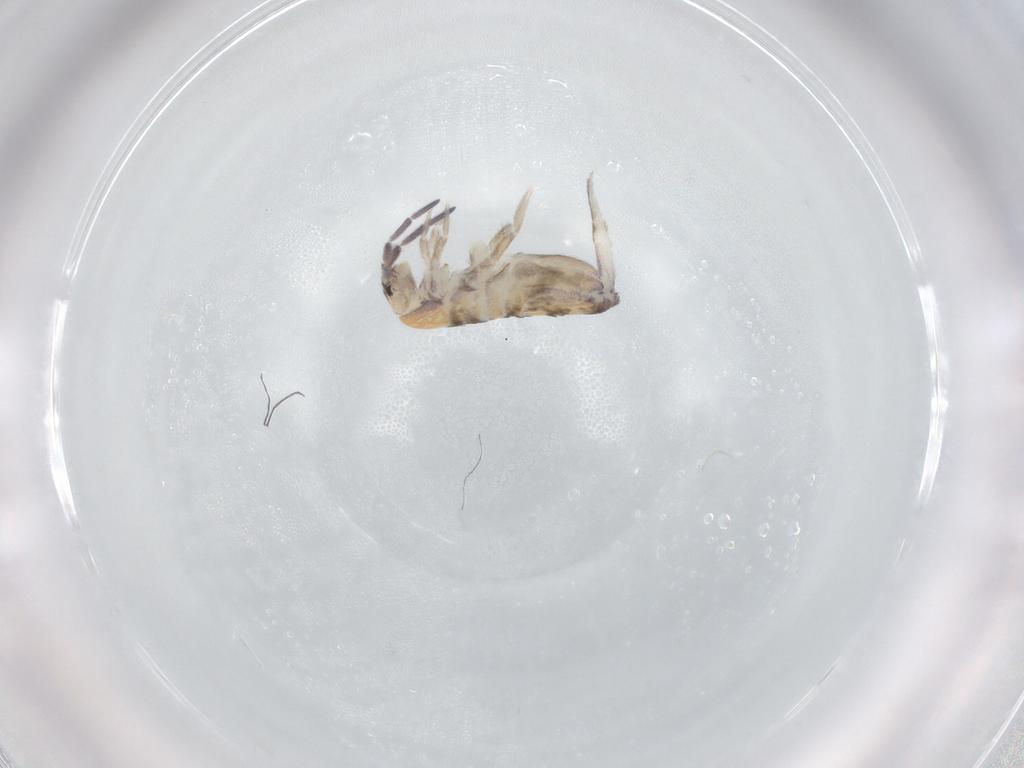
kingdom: Animalia
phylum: Arthropoda
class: Collembola
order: Entomobryomorpha
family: Entomobryidae
